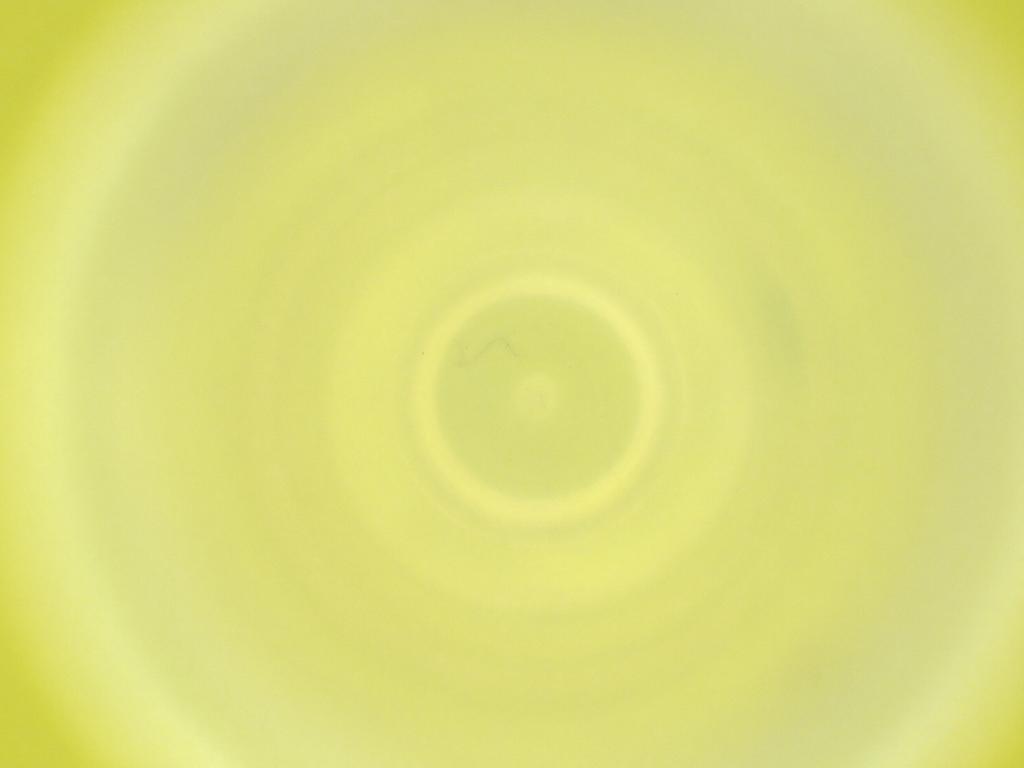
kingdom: Animalia
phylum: Arthropoda
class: Insecta
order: Diptera
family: Cecidomyiidae
